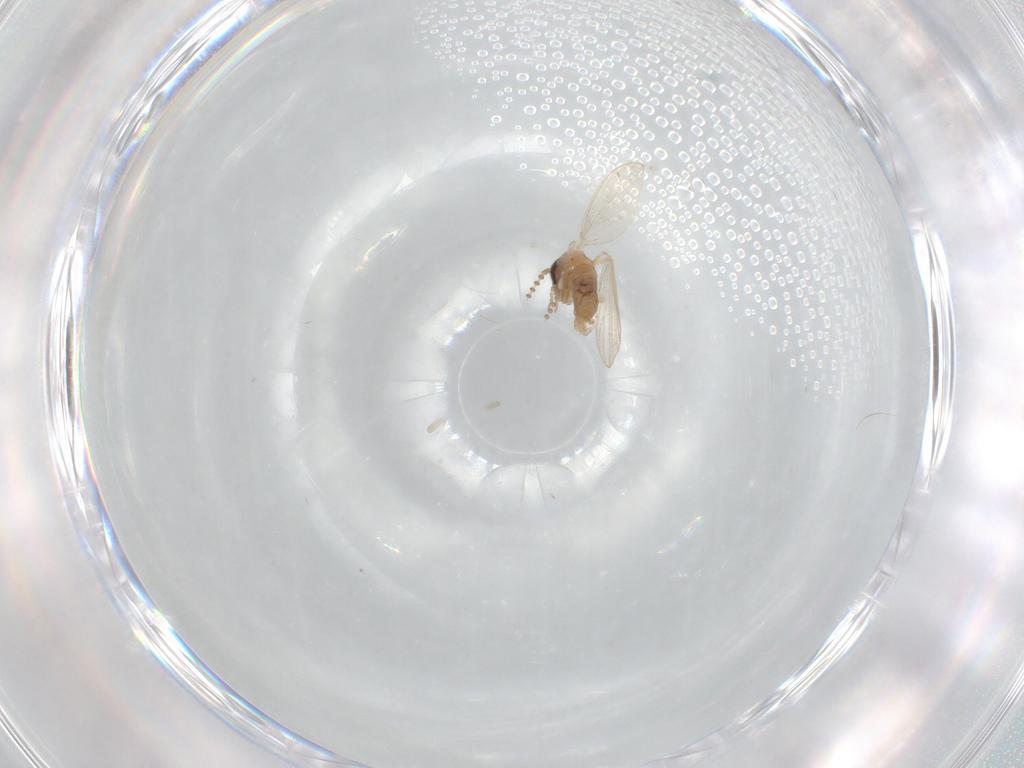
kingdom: Animalia
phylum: Arthropoda
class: Insecta
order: Diptera
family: Psychodidae
